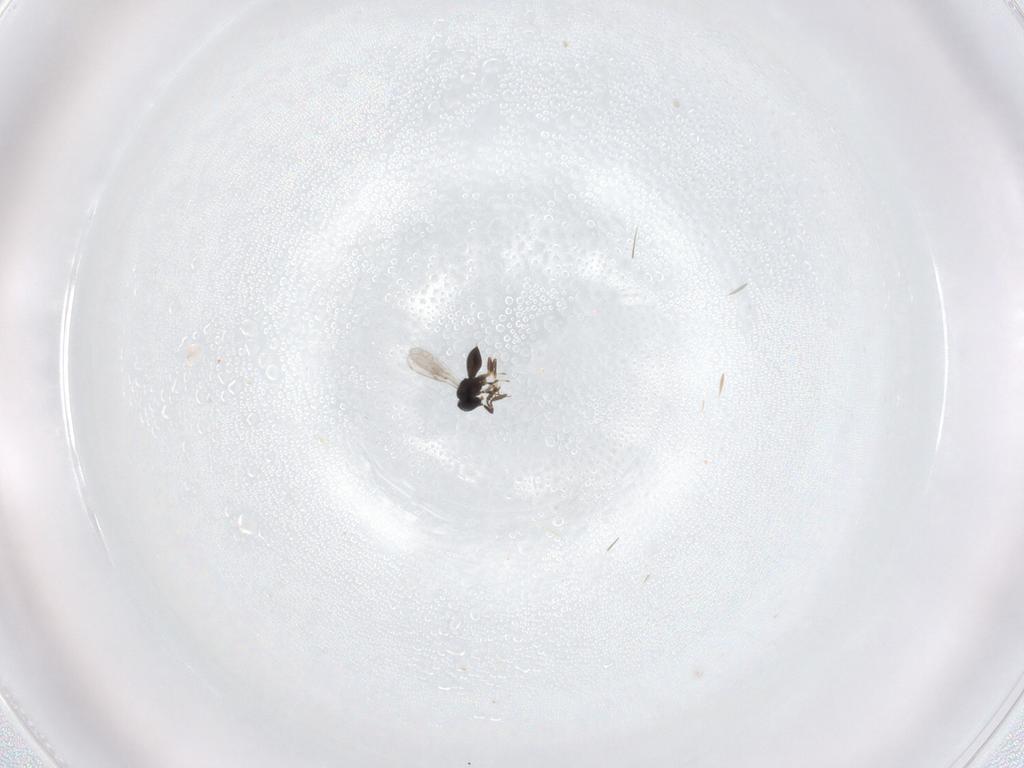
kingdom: Animalia
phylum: Arthropoda
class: Insecta
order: Hymenoptera
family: Scelionidae
